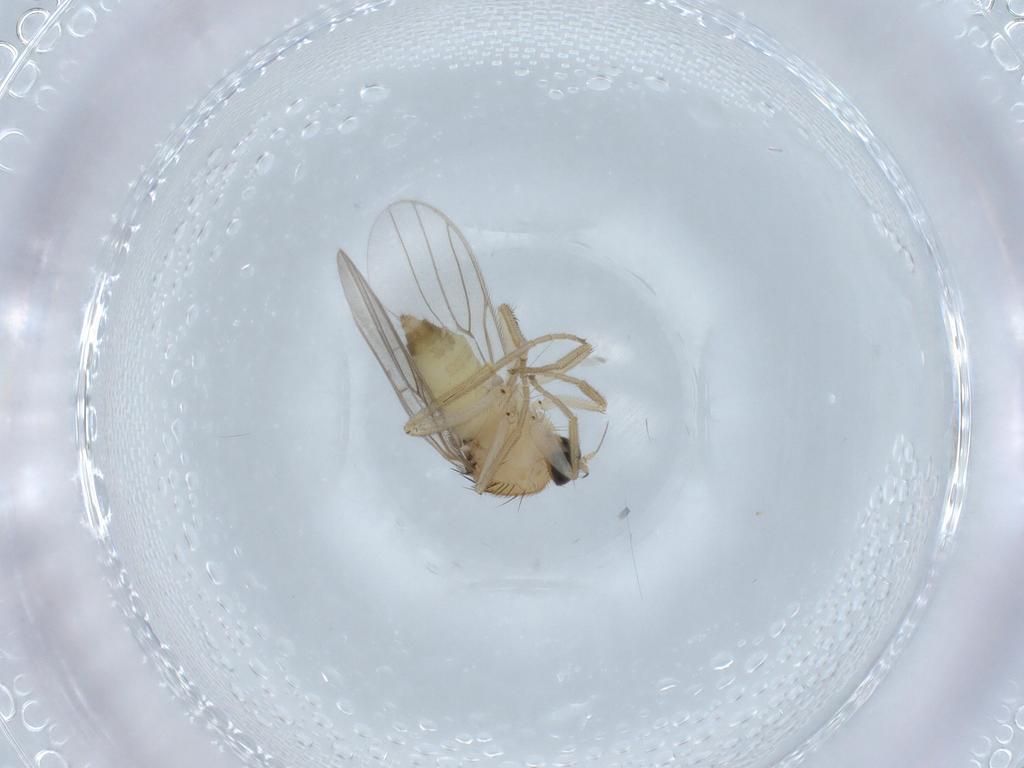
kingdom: Animalia
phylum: Arthropoda
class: Insecta
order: Diptera
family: Hybotidae
